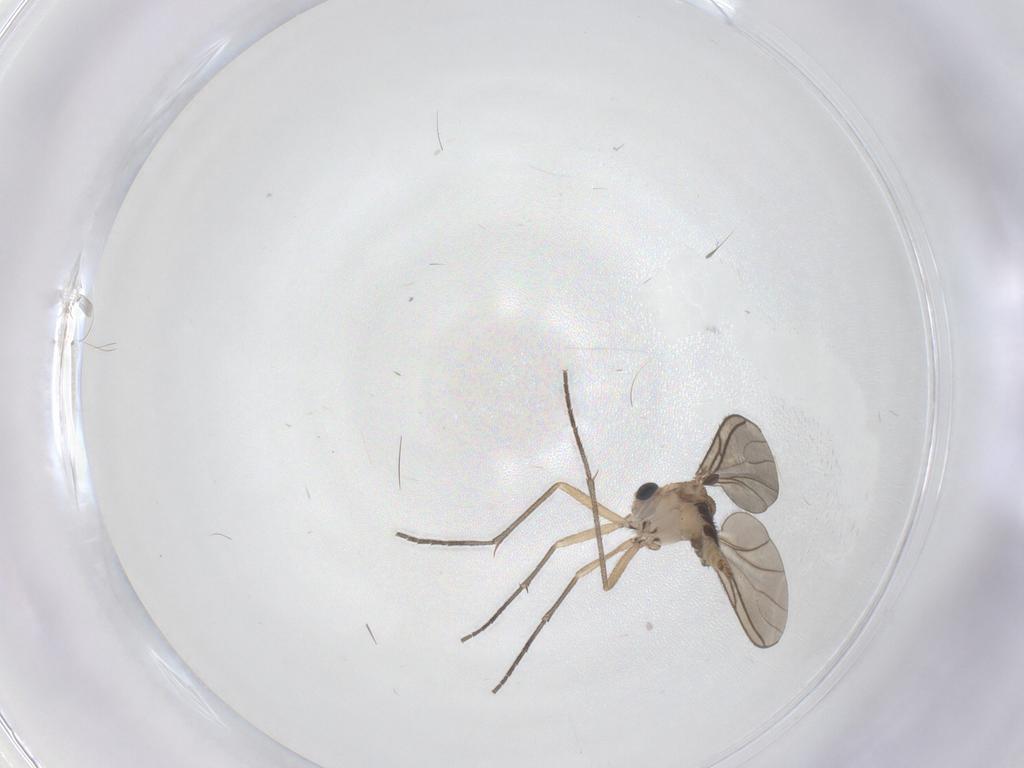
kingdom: Animalia
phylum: Arthropoda
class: Insecta
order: Diptera
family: Sciaridae
